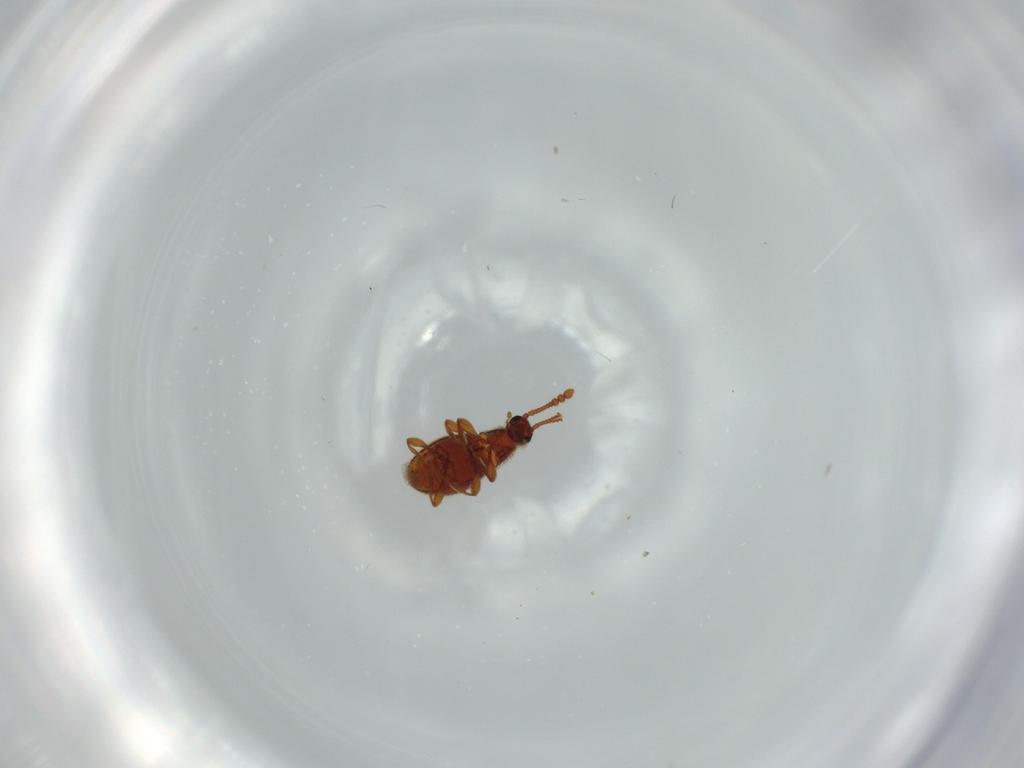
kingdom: Animalia
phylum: Arthropoda
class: Insecta
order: Coleoptera
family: Staphylinidae
